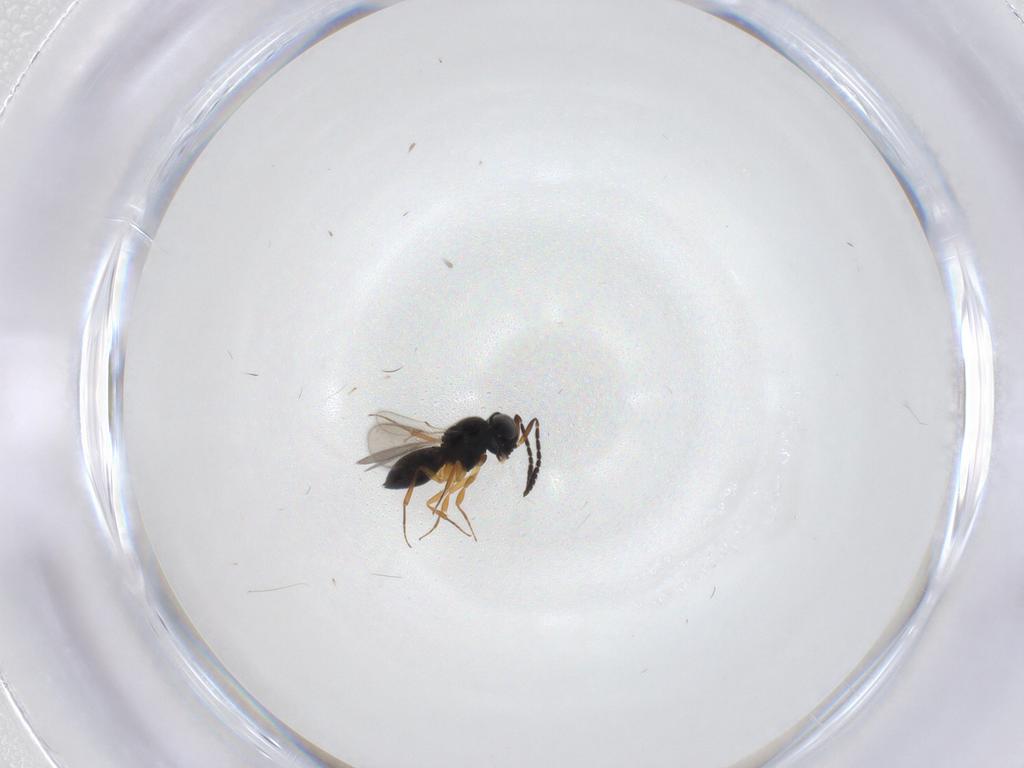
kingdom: Animalia
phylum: Arthropoda
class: Insecta
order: Hymenoptera
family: Scelionidae
